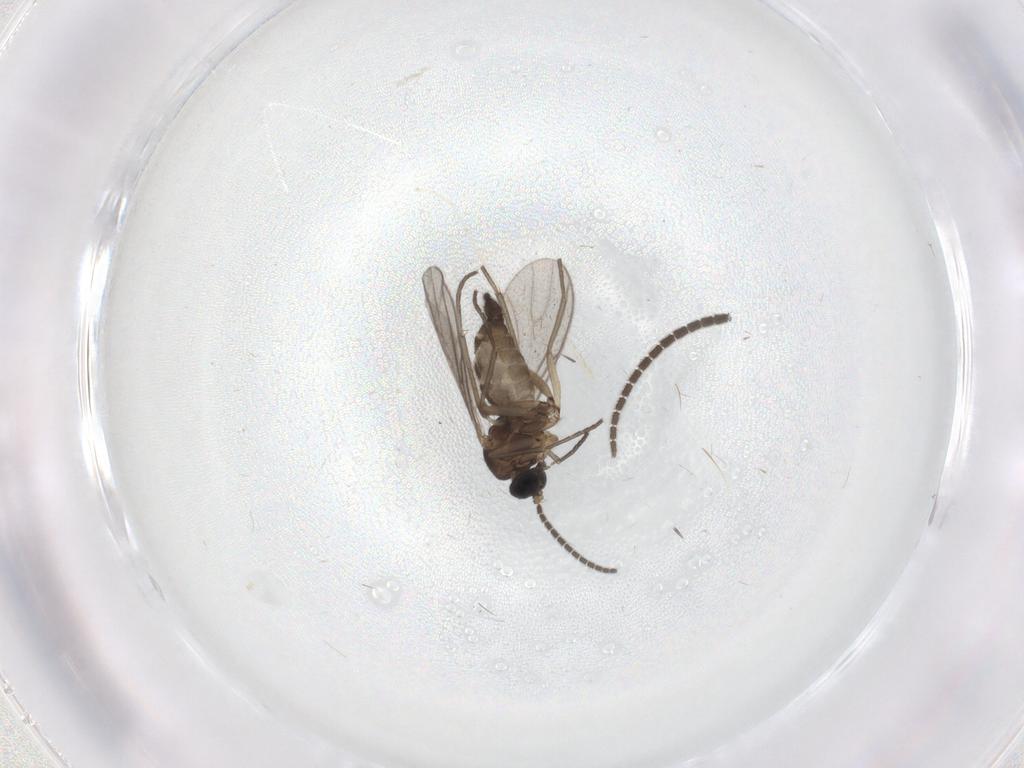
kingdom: Animalia
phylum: Arthropoda
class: Insecta
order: Diptera
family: Sciaridae
